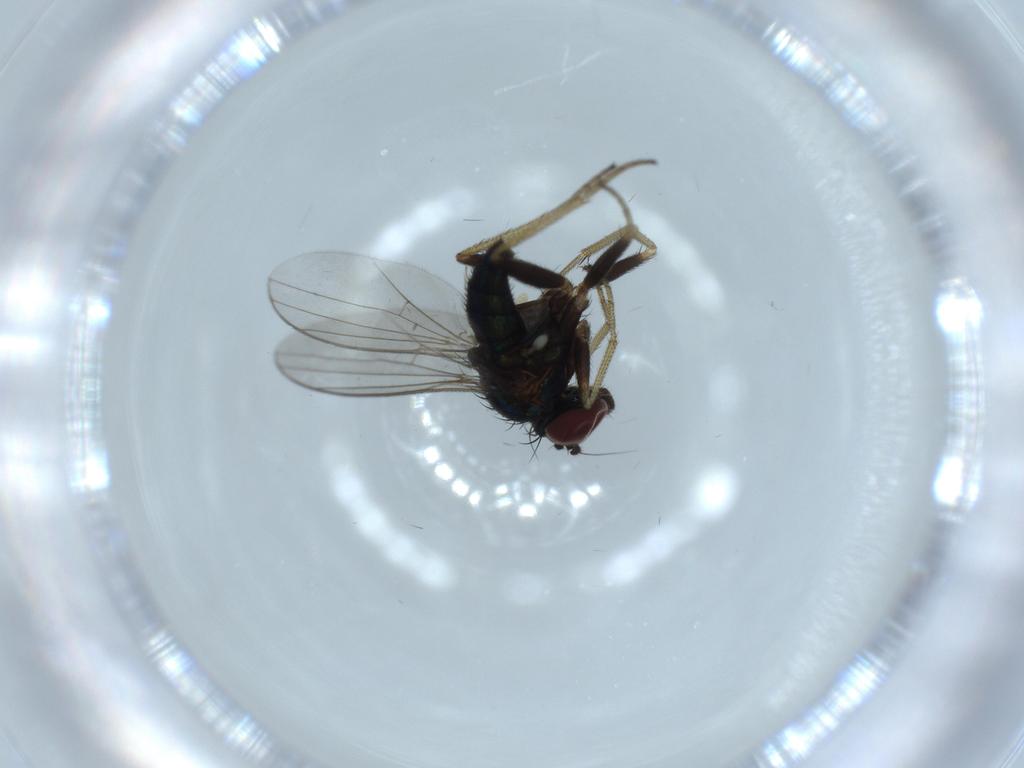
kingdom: Animalia
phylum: Arthropoda
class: Insecta
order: Diptera
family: Dolichopodidae
